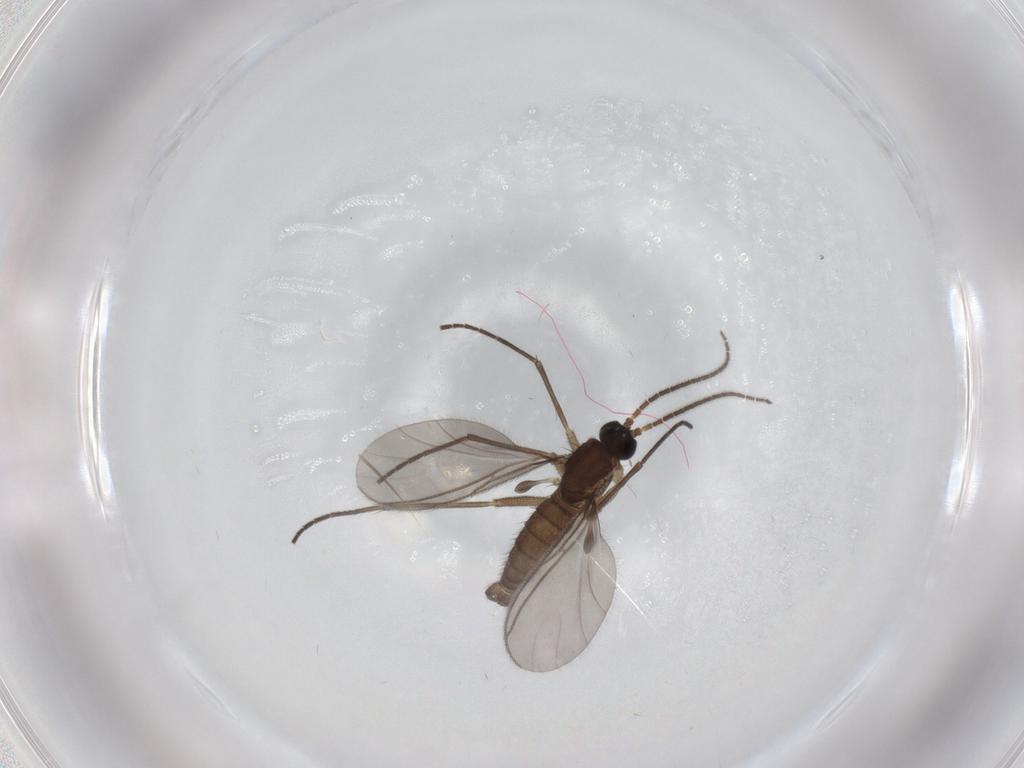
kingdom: Animalia
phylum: Arthropoda
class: Insecta
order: Diptera
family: Sciaridae
